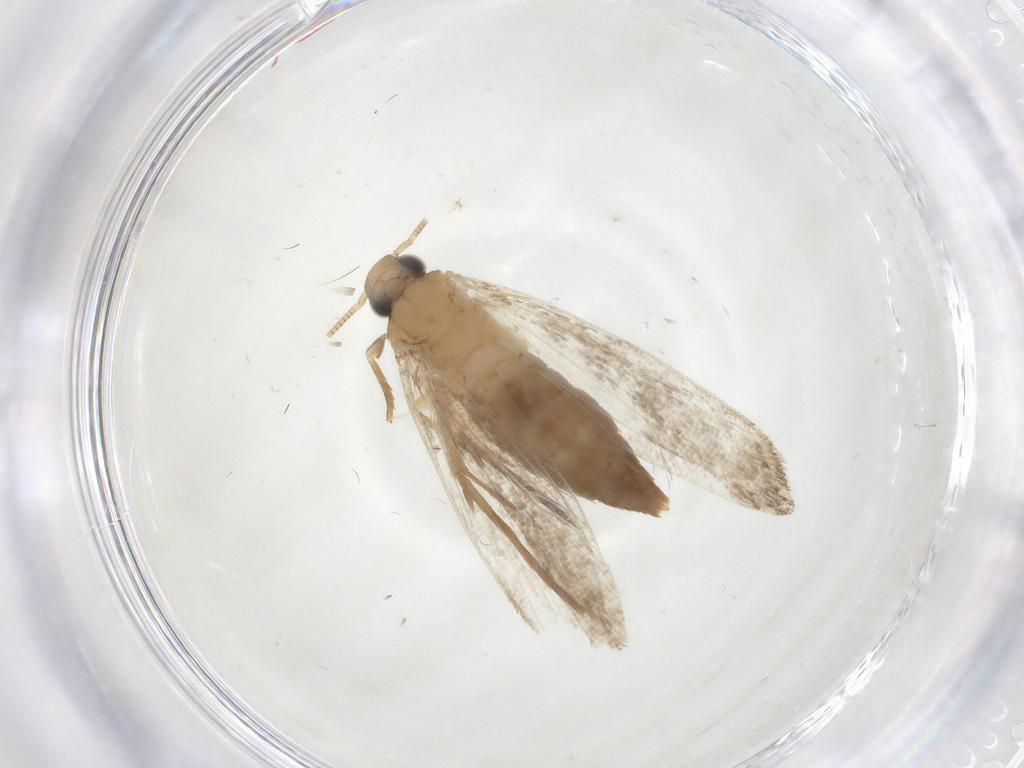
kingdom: Animalia
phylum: Arthropoda
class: Insecta
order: Lepidoptera
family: Tineidae
